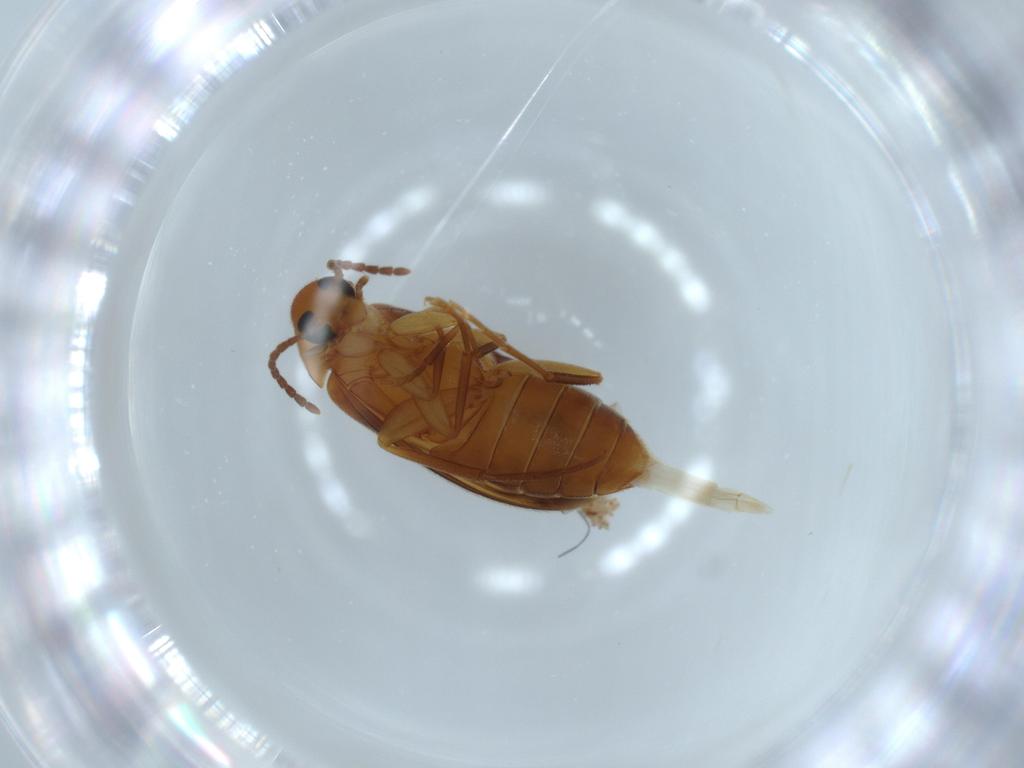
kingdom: Animalia
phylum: Arthropoda
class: Insecta
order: Coleoptera
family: Scraptiidae
